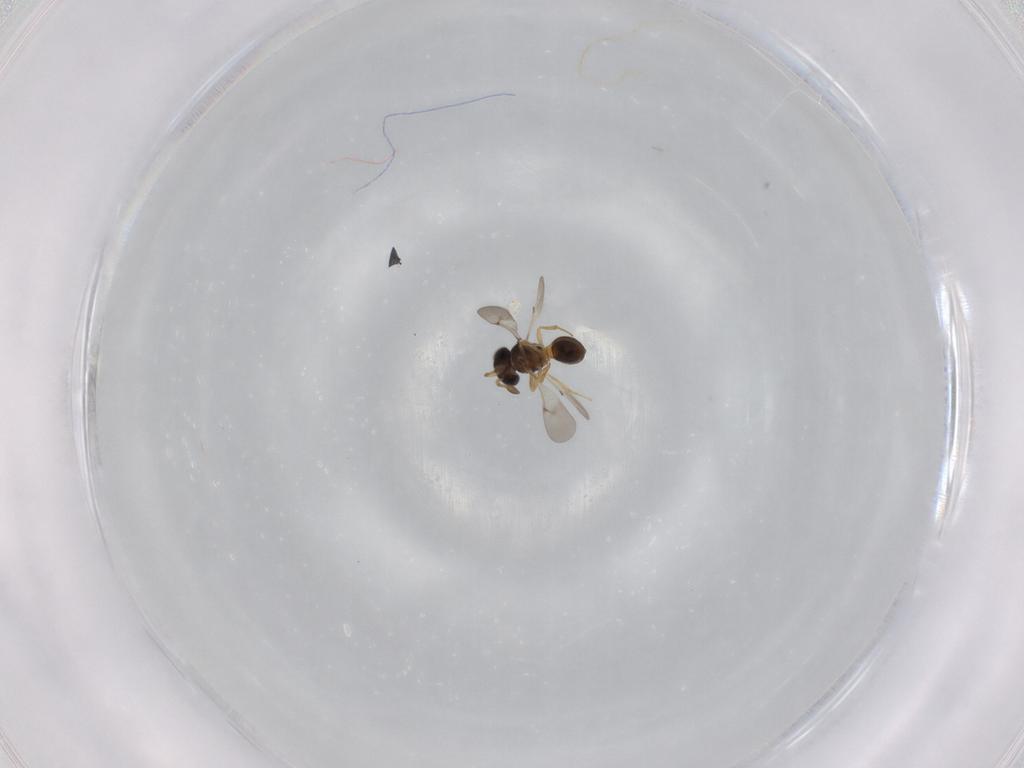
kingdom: Animalia
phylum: Arthropoda
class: Insecta
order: Hymenoptera
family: Scelionidae
